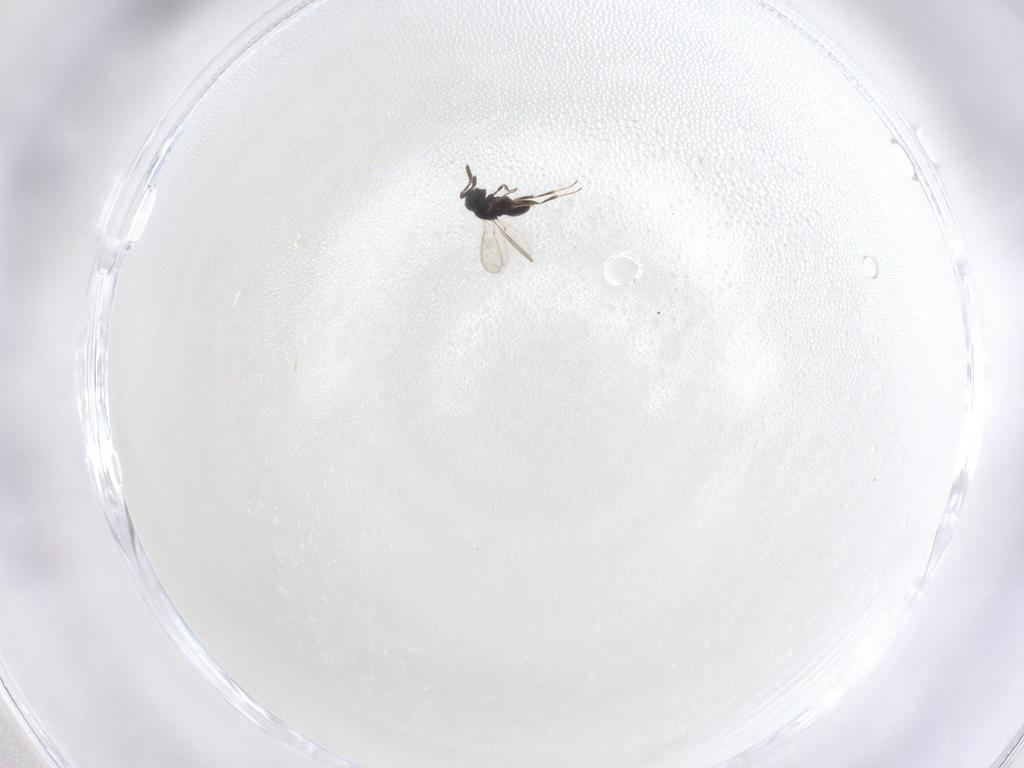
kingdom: Animalia
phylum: Arthropoda
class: Insecta
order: Hymenoptera
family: Scelionidae
